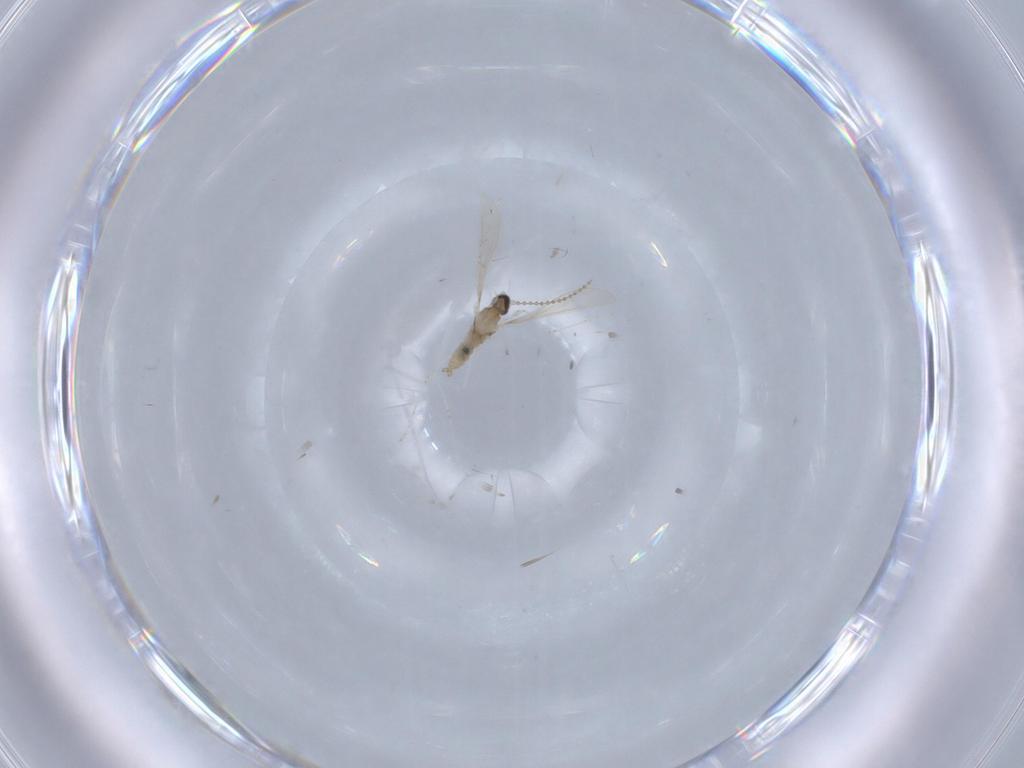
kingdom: Animalia
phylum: Arthropoda
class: Insecta
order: Diptera
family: Cecidomyiidae
